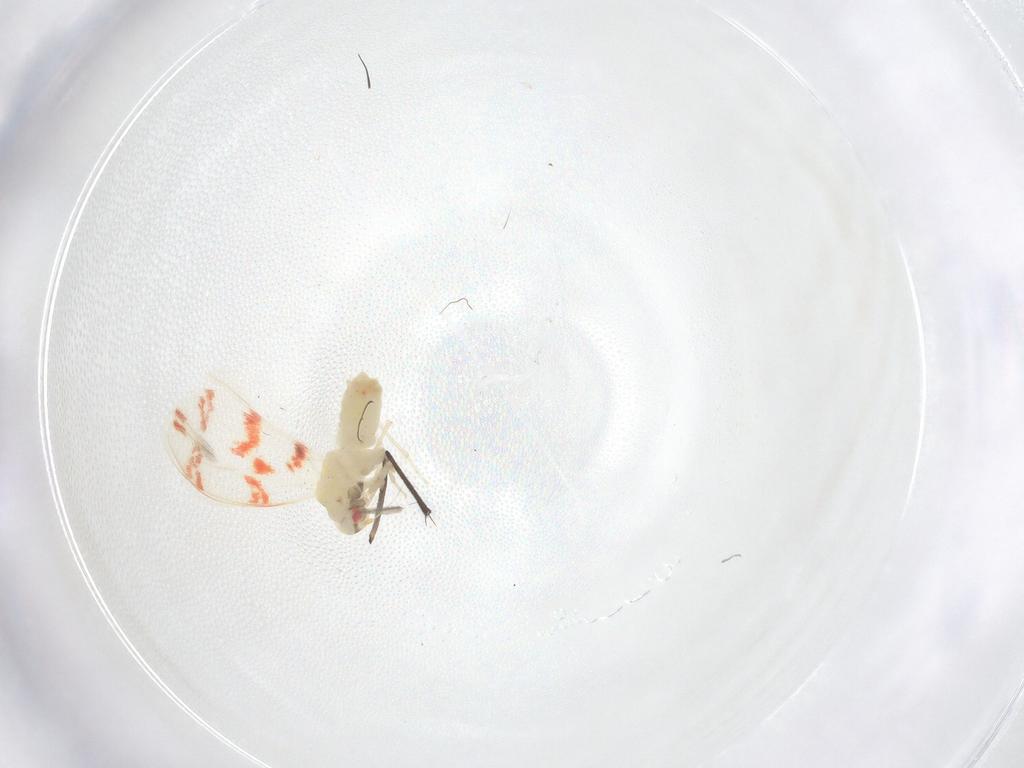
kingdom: Animalia
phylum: Arthropoda
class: Insecta
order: Hemiptera
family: Aleyrodidae
